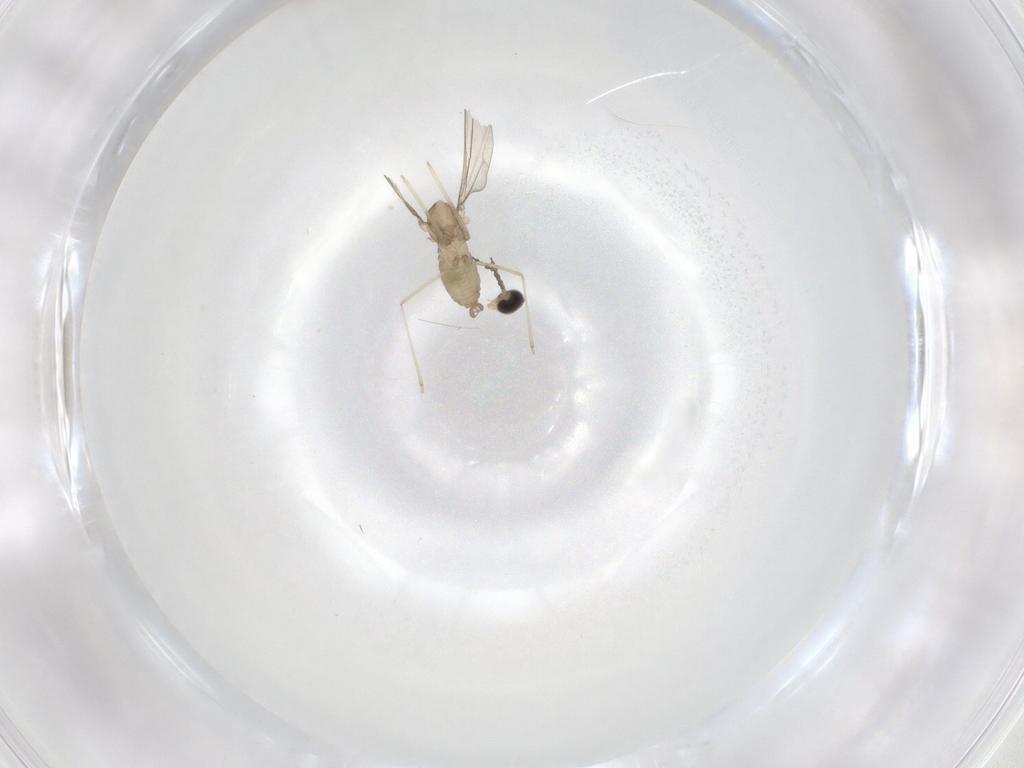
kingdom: Animalia
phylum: Arthropoda
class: Insecta
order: Diptera
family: Cecidomyiidae
